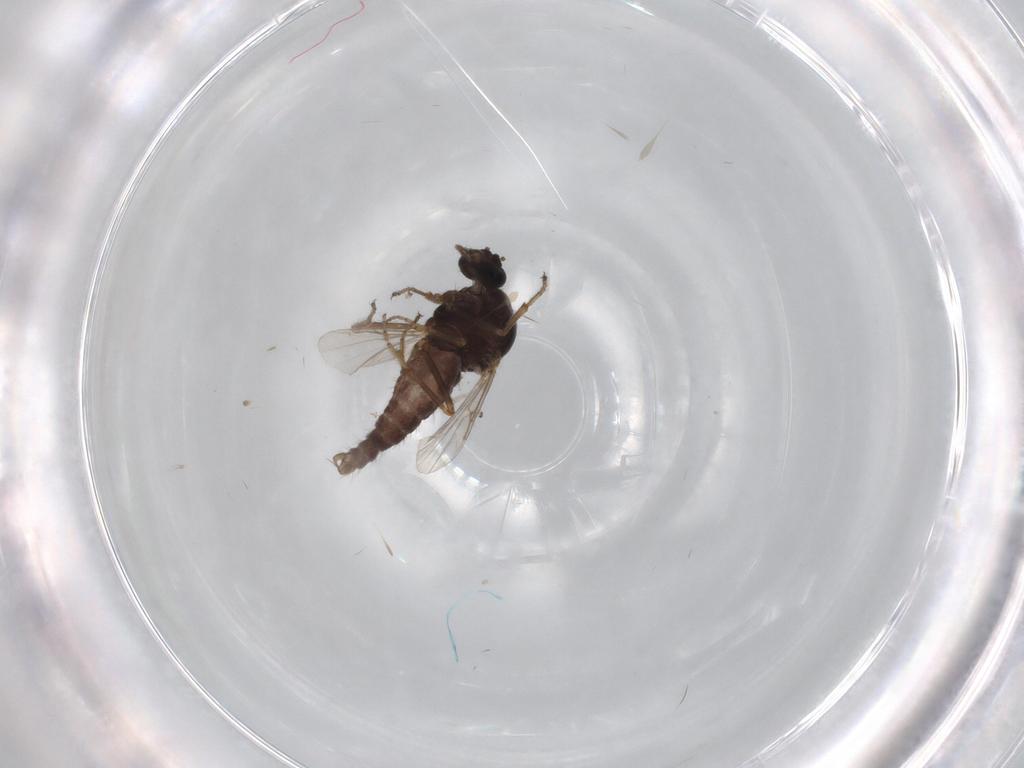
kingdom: Animalia
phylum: Arthropoda
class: Insecta
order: Diptera
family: Ceratopogonidae
